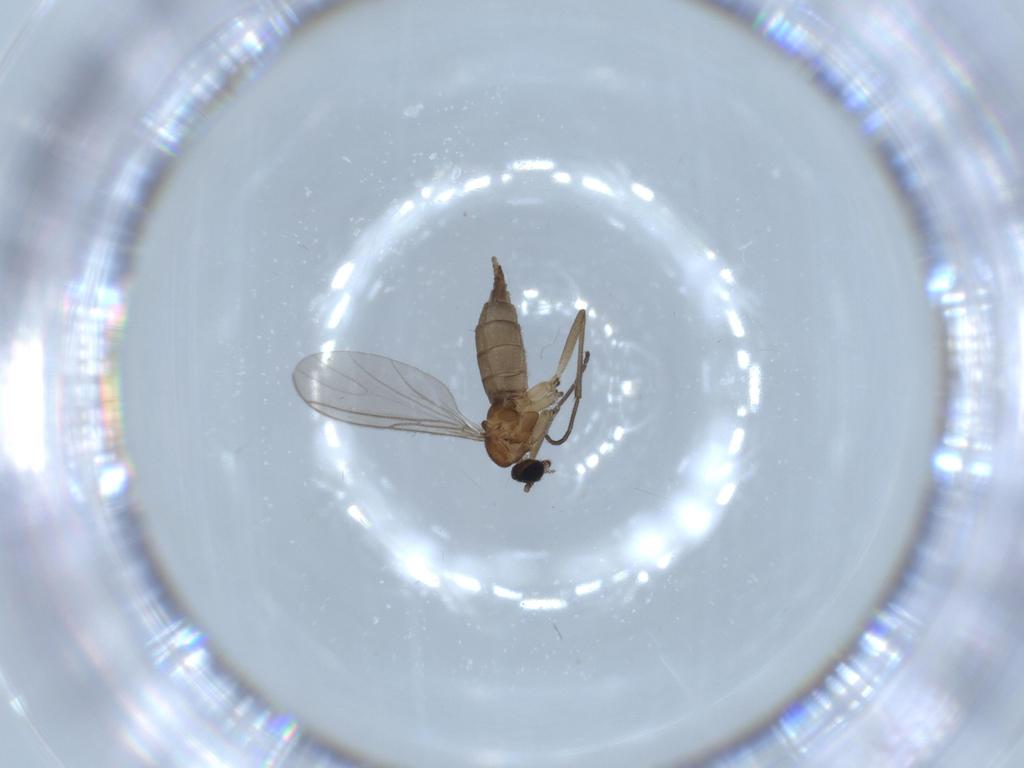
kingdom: Animalia
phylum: Arthropoda
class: Insecta
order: Diptera
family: Sciaridae
